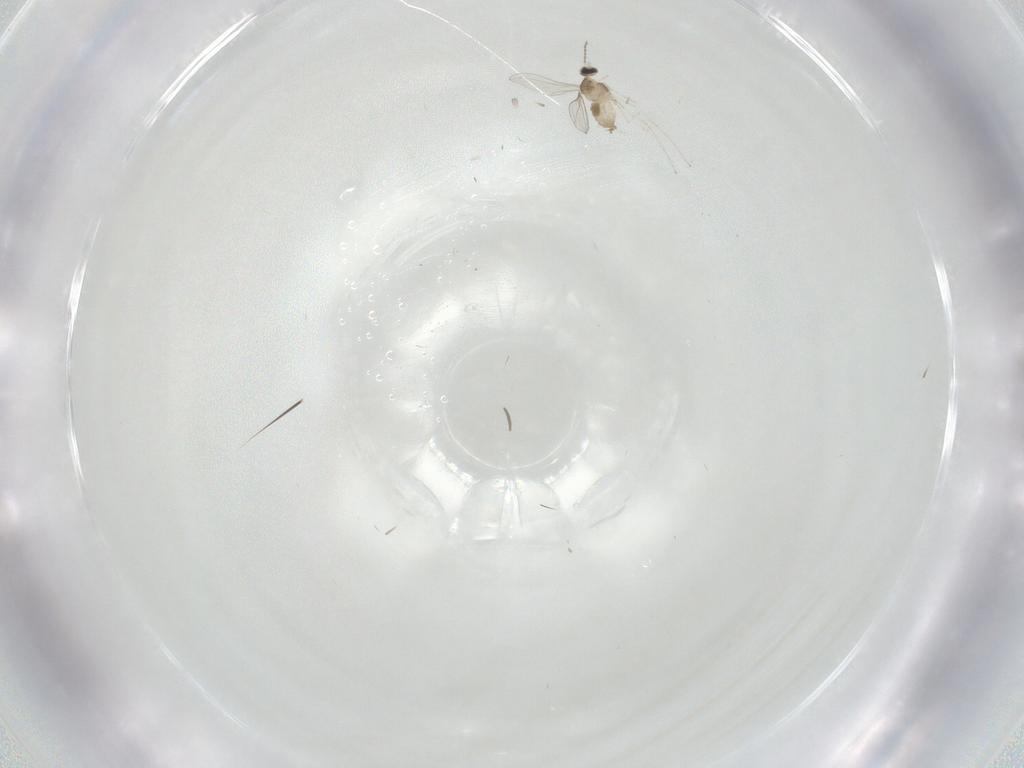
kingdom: Animalia
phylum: Arthropoda
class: Insecta
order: Diptera
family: Cecidomyiidae
